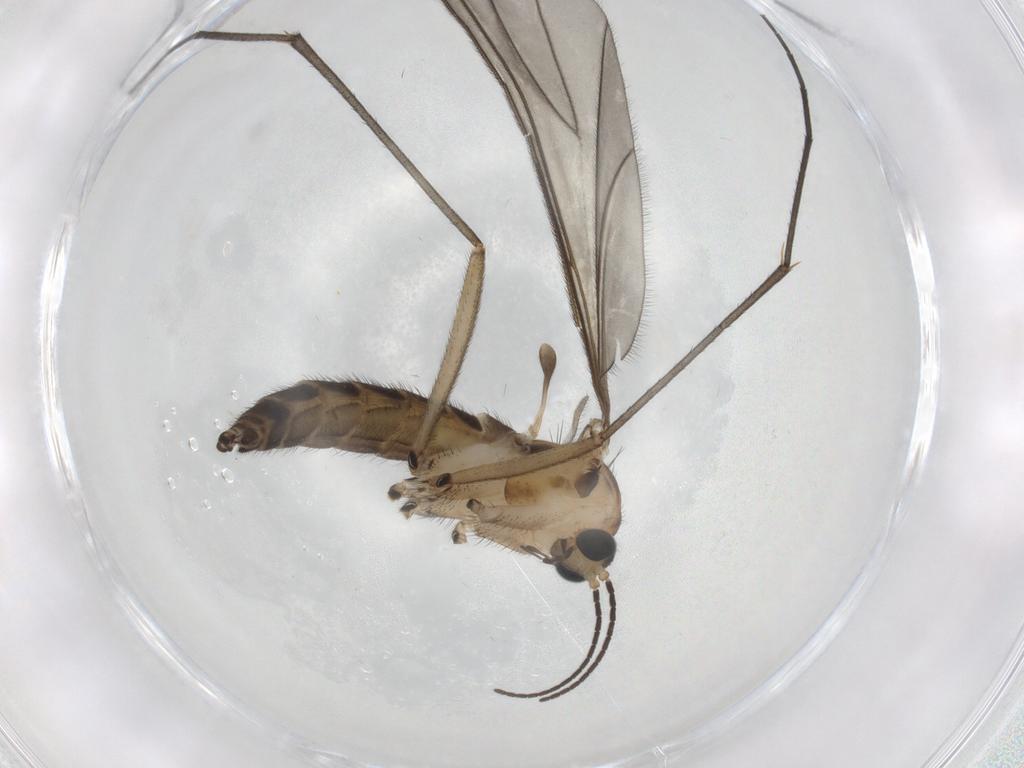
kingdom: Animalia
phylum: Arthropoda
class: Insecta
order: Diptera
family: Sciaridae
